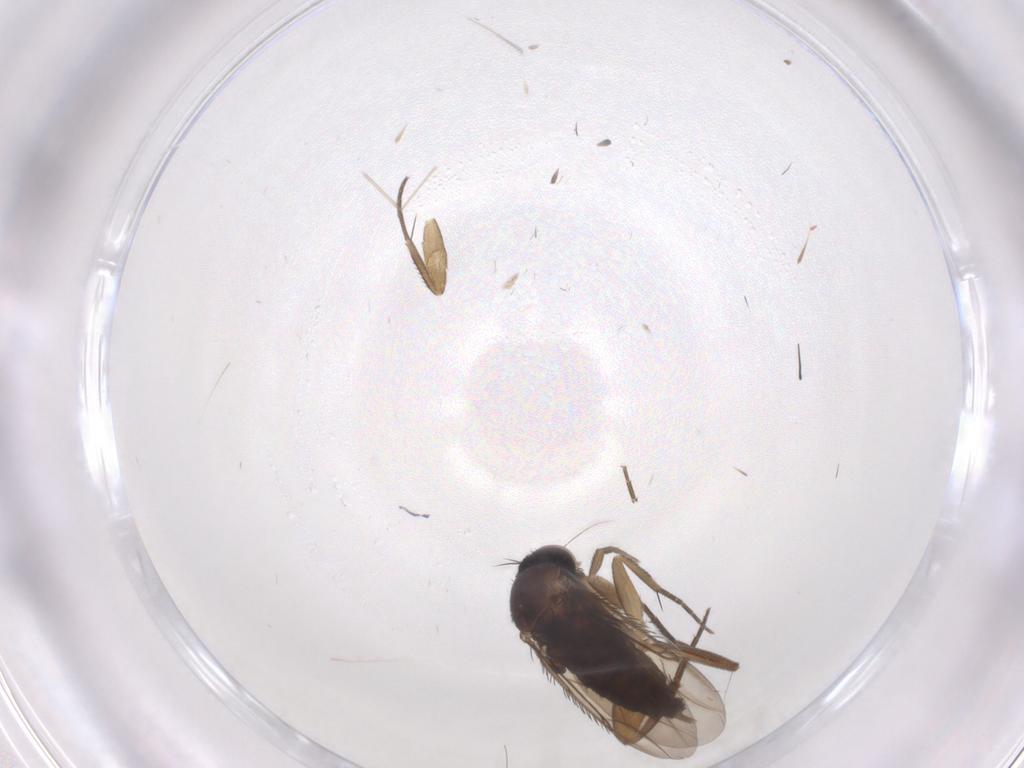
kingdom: Animalia
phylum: Arthropoda
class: Insecta
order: Diptera
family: Phoridae
